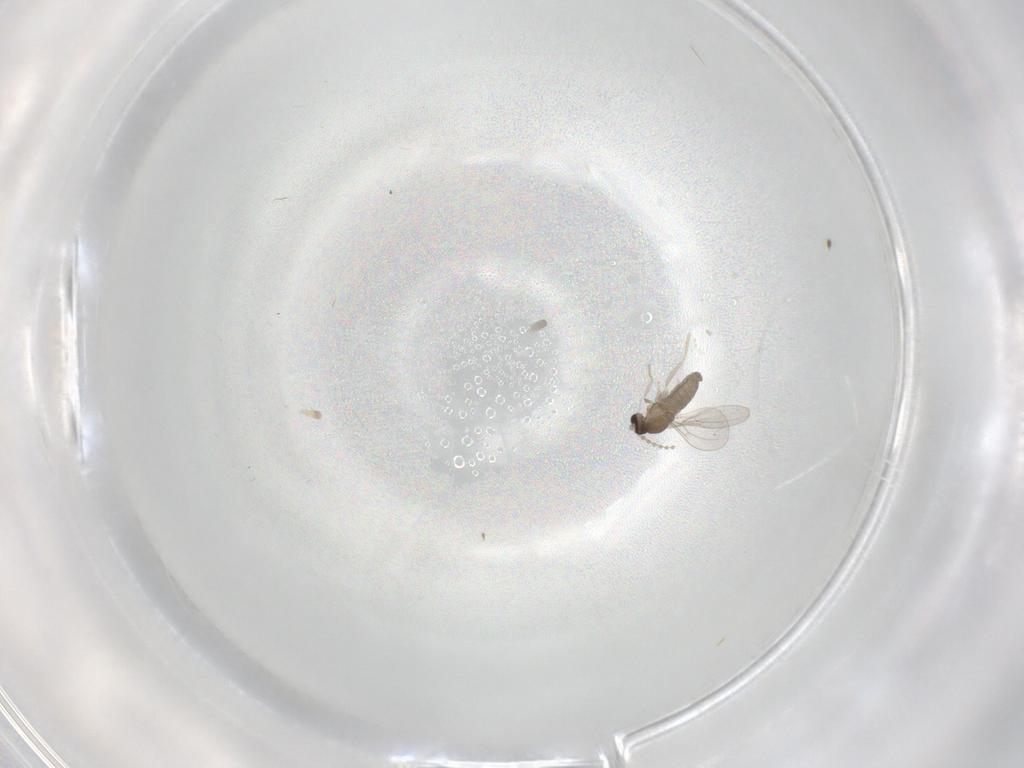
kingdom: Animalia
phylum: Arthropoda
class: Insecta
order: Diptera
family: Cecidomyiidae
